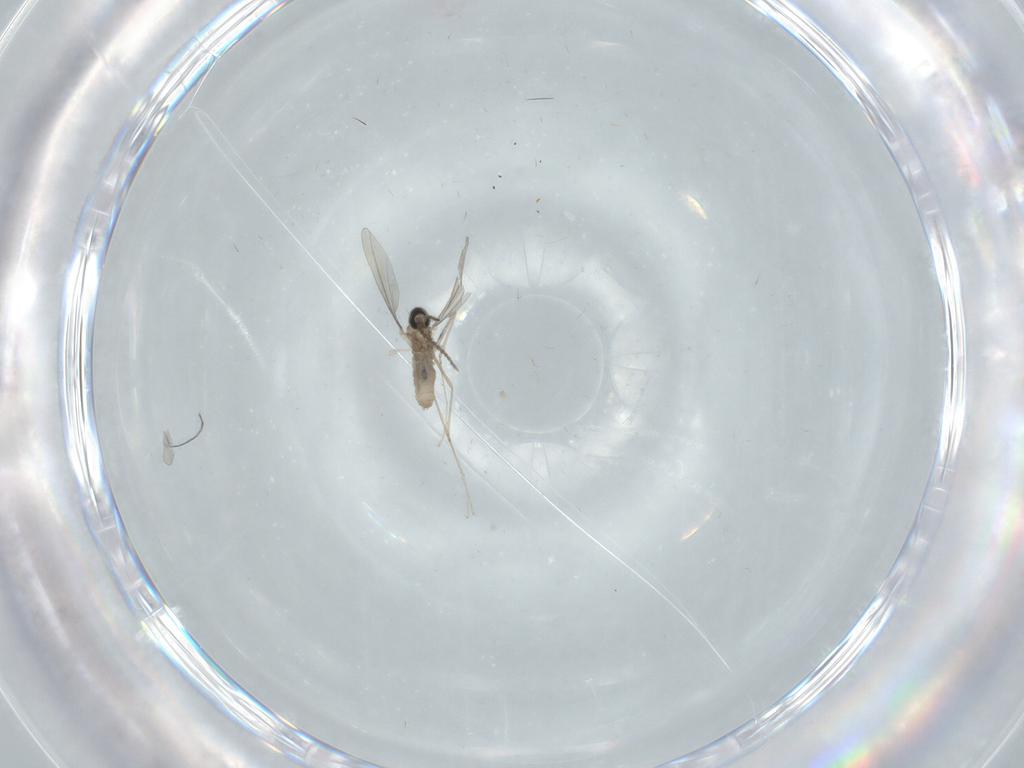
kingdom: Animalia
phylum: Arthropoda
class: Insecta
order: Diptera
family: Cecidomyiidae
